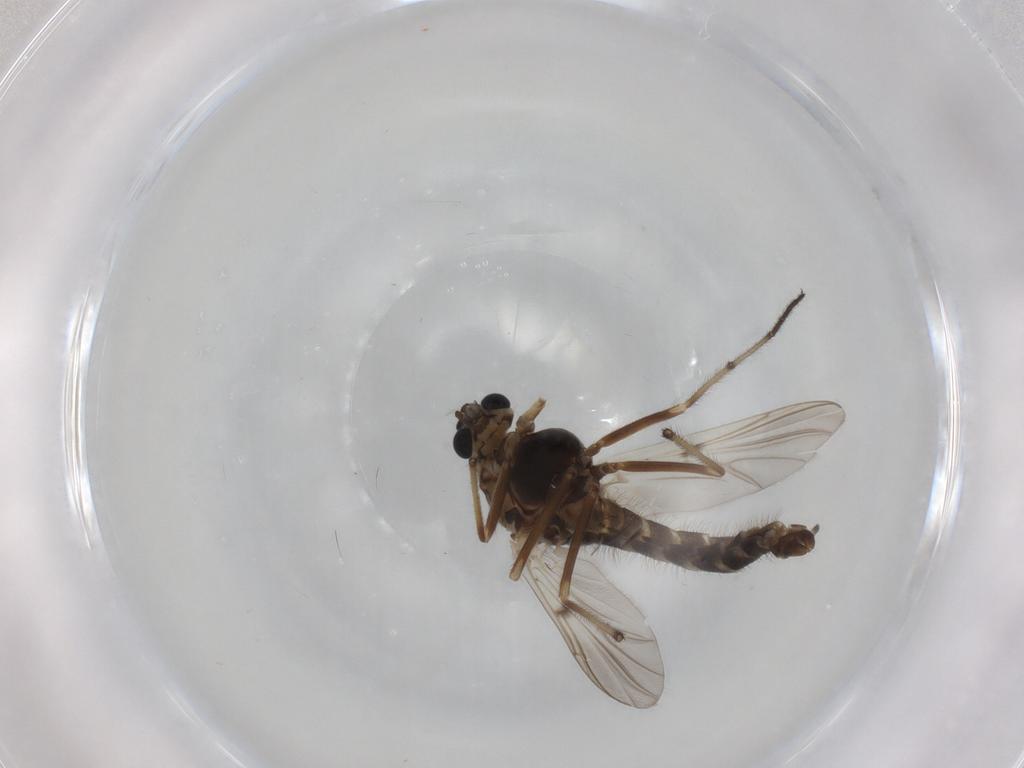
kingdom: Animalia
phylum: Arthropoda
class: Insecta
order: Diptera
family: Chironomidae
